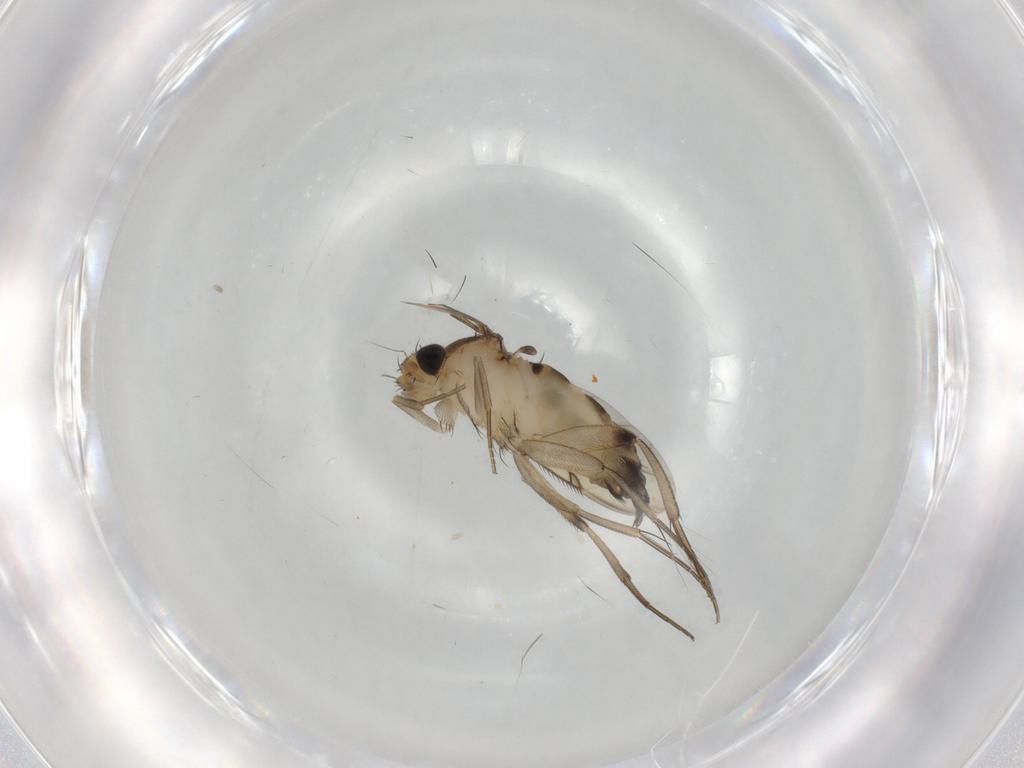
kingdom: Animalia
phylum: Arthropoda
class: Insecta
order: Diptera
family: Phoridae
